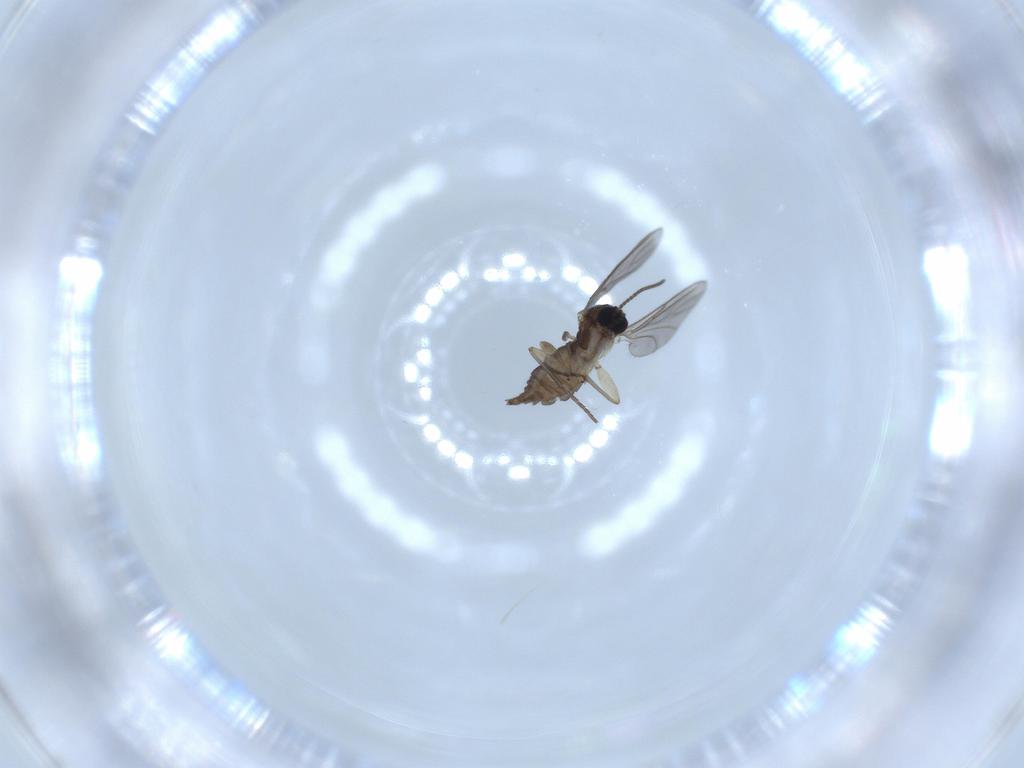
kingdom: Animalia
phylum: Arthropoda
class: Insecta
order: Diptera
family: Sciaridae
